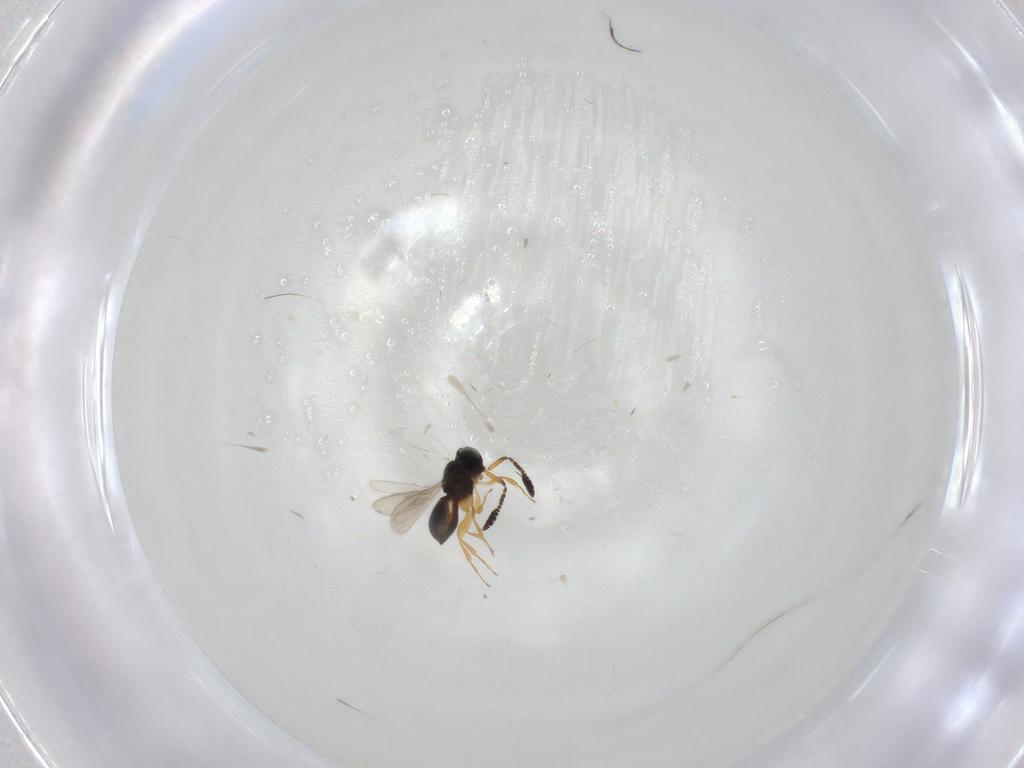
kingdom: Animalia
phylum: Arthropoda
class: Insecta
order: Hymenoptera
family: Scelionidae
